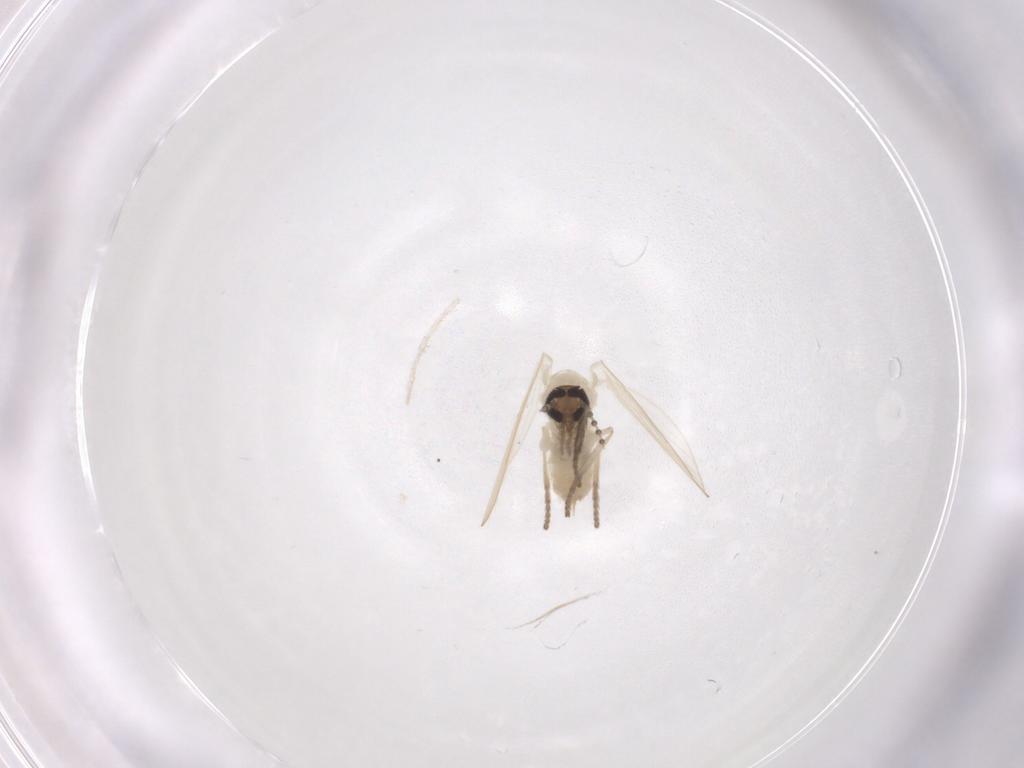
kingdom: Animalia
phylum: Arthropoda
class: Insecta
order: Diptera
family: Psychodidae
